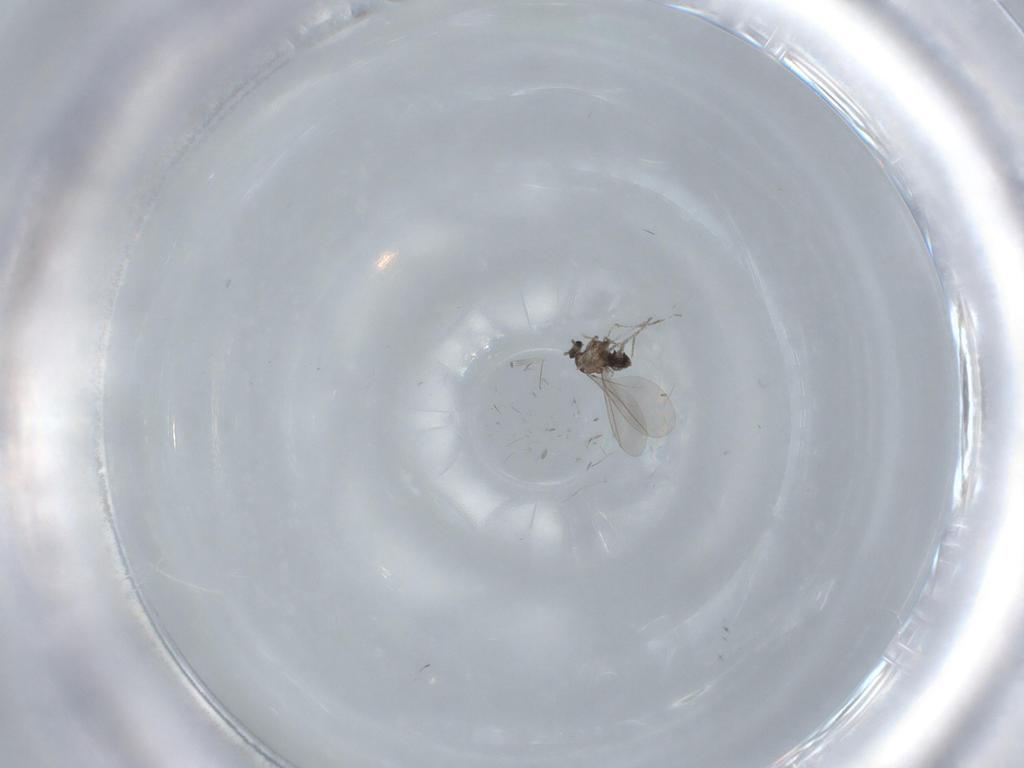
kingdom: Animalia
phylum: Arthropoda
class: Insecta
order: Diptera
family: Cecidomyiidae
